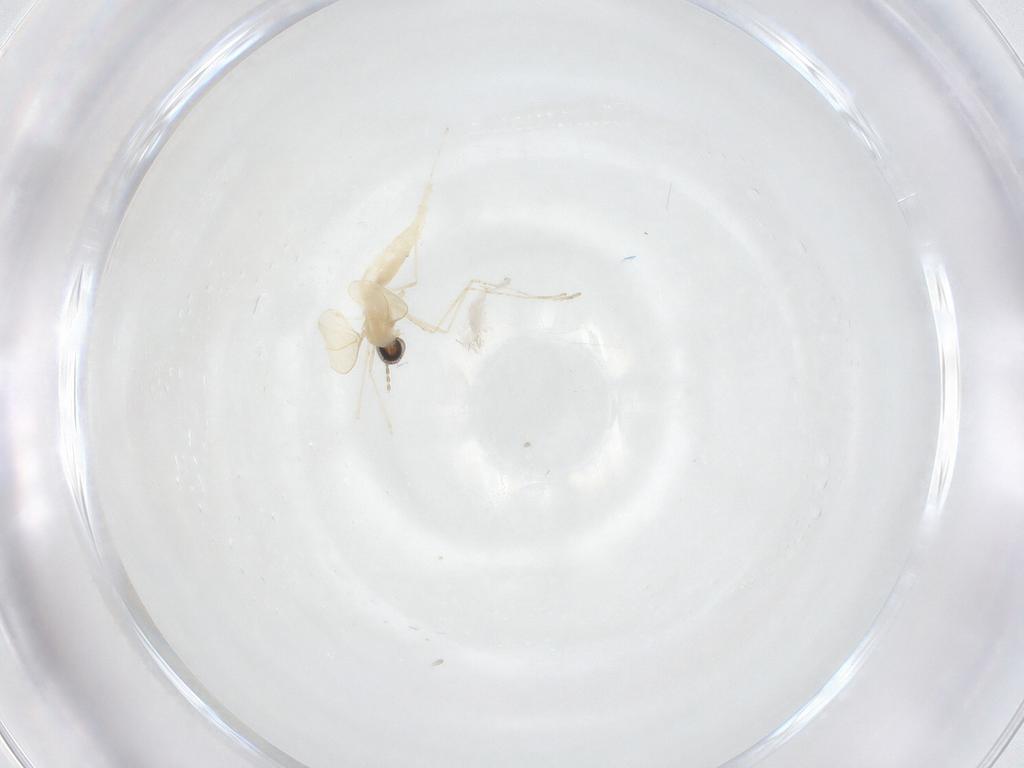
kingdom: Animalia
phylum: Arthropoda
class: Insecta
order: Diptera
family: Cecidomyiidae
